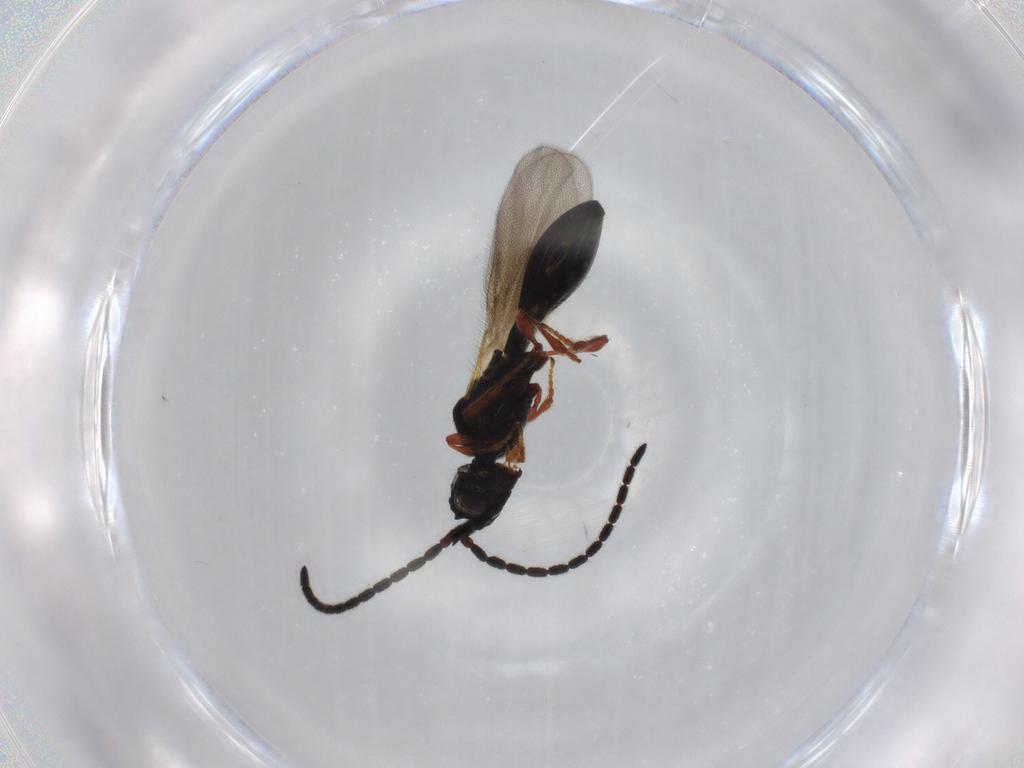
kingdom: Animalia
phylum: Arthropoda
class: Insecta
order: Hymenoptera
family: Diapriidae
